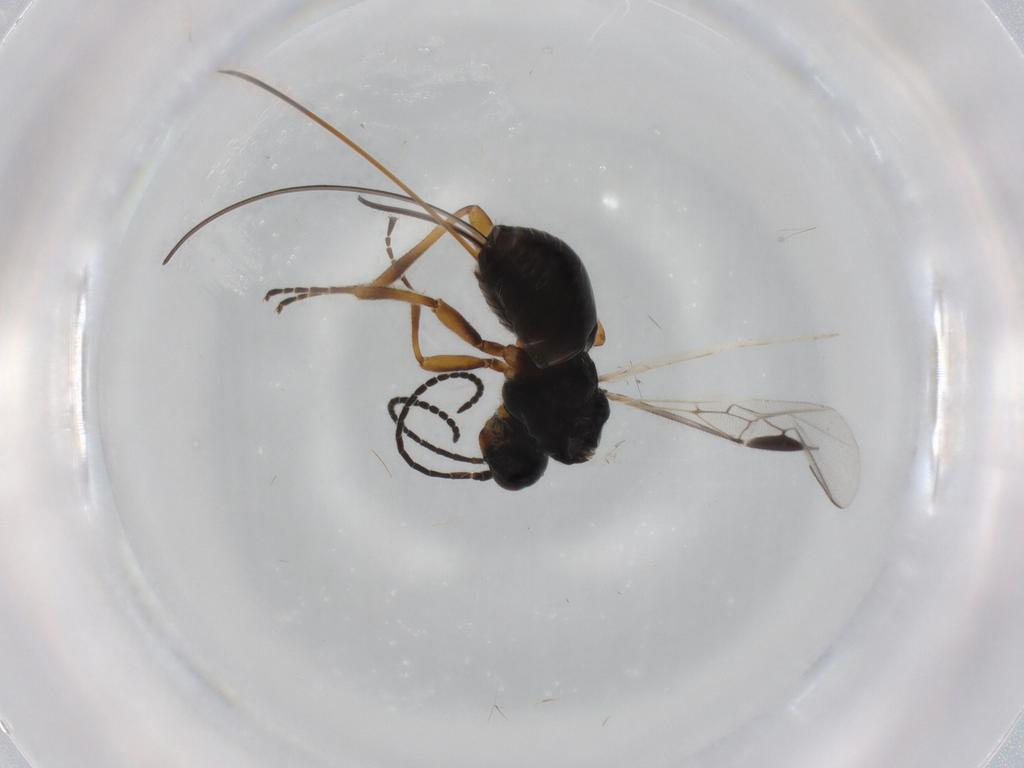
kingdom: Animalia
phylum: Arthropoda
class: Insecta
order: Hymenoptera
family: Braconidae
